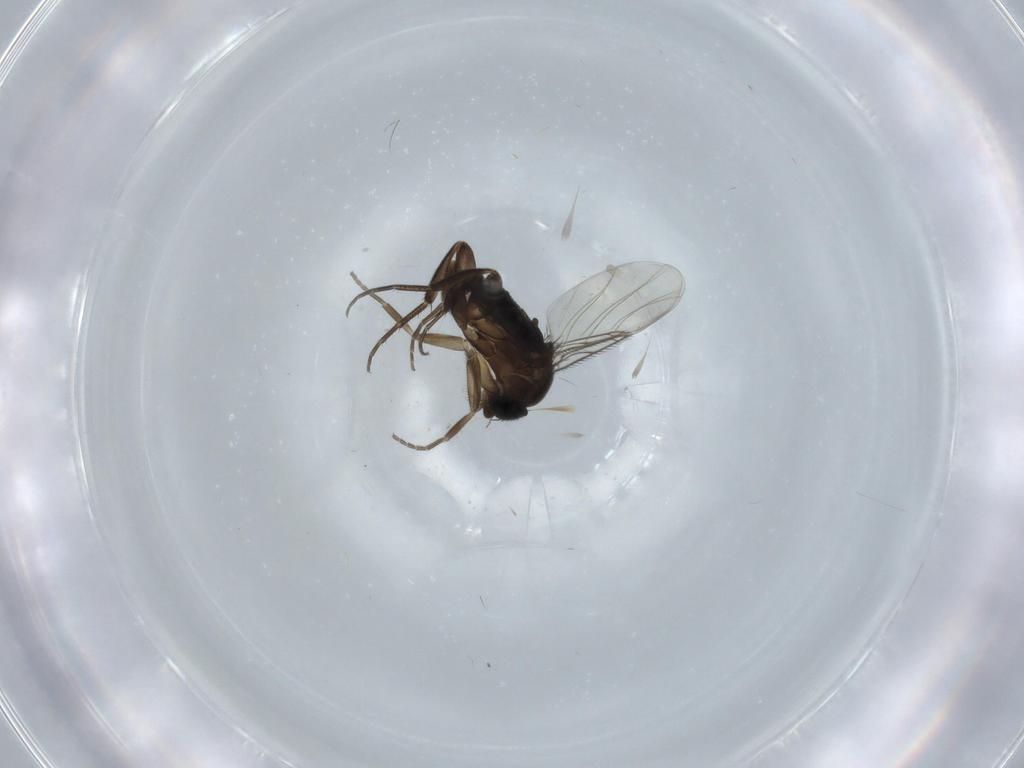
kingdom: Animalia
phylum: Arthropoda
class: Insecta
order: Diptera
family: Phoridae
